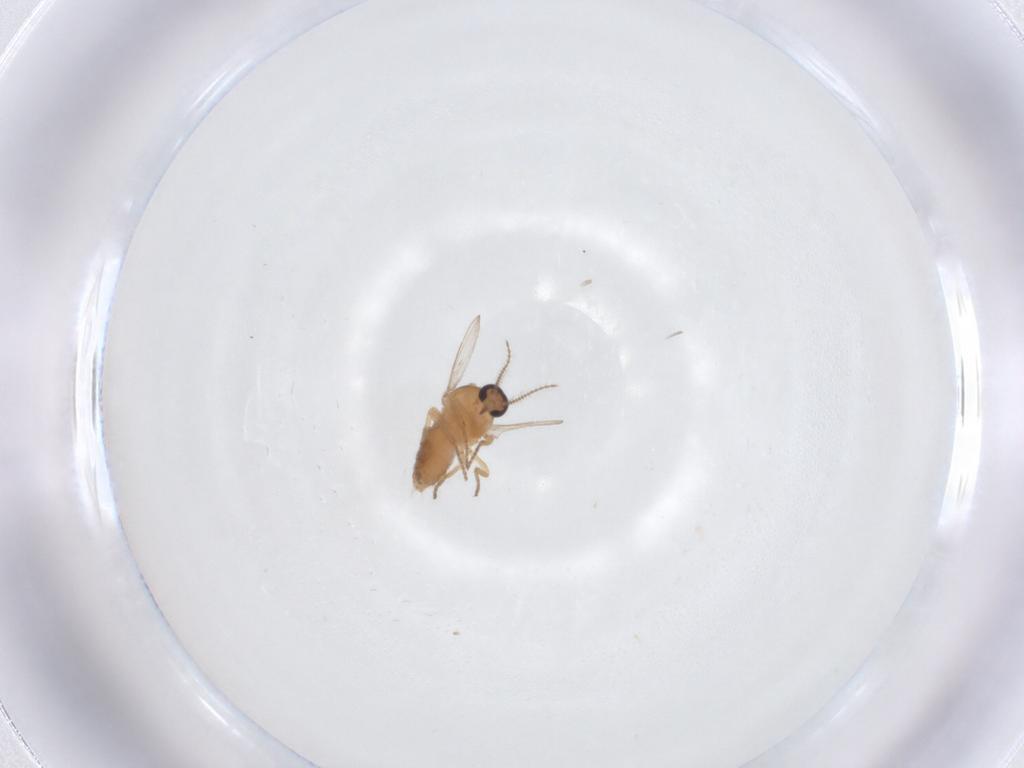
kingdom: Animalia
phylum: Arthropoda
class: Insecta
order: Diptera
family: Ceratopogonidae
